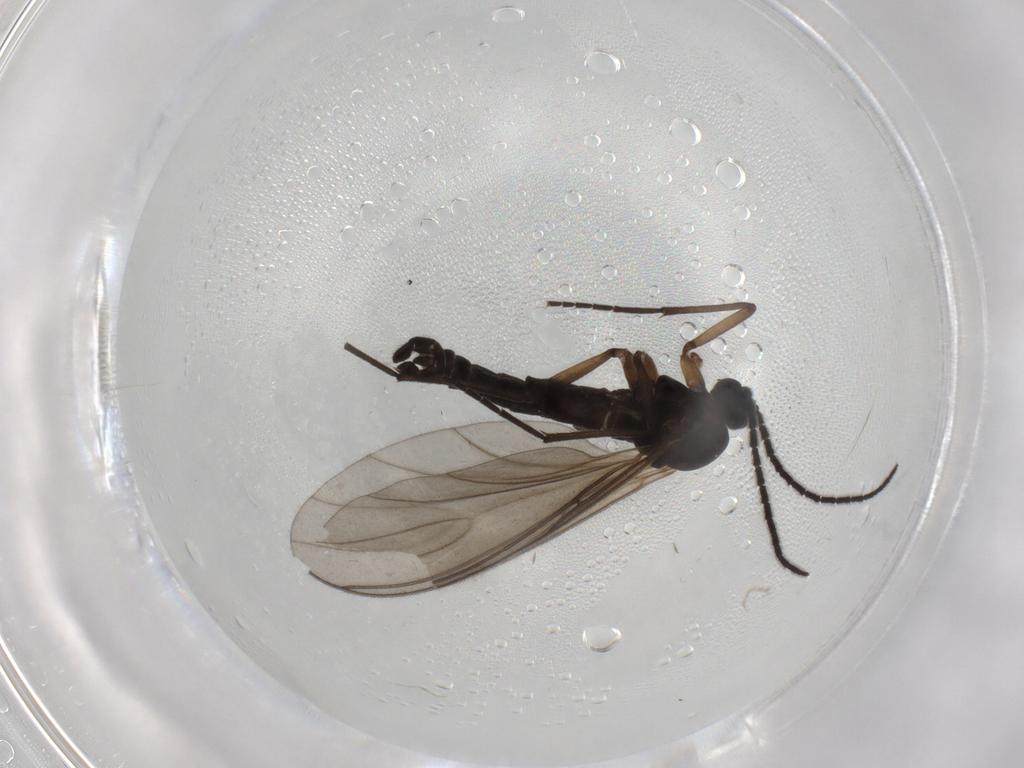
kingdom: Animalia
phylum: Arthropoda
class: Insecta
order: Diptera
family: Sciaridae
